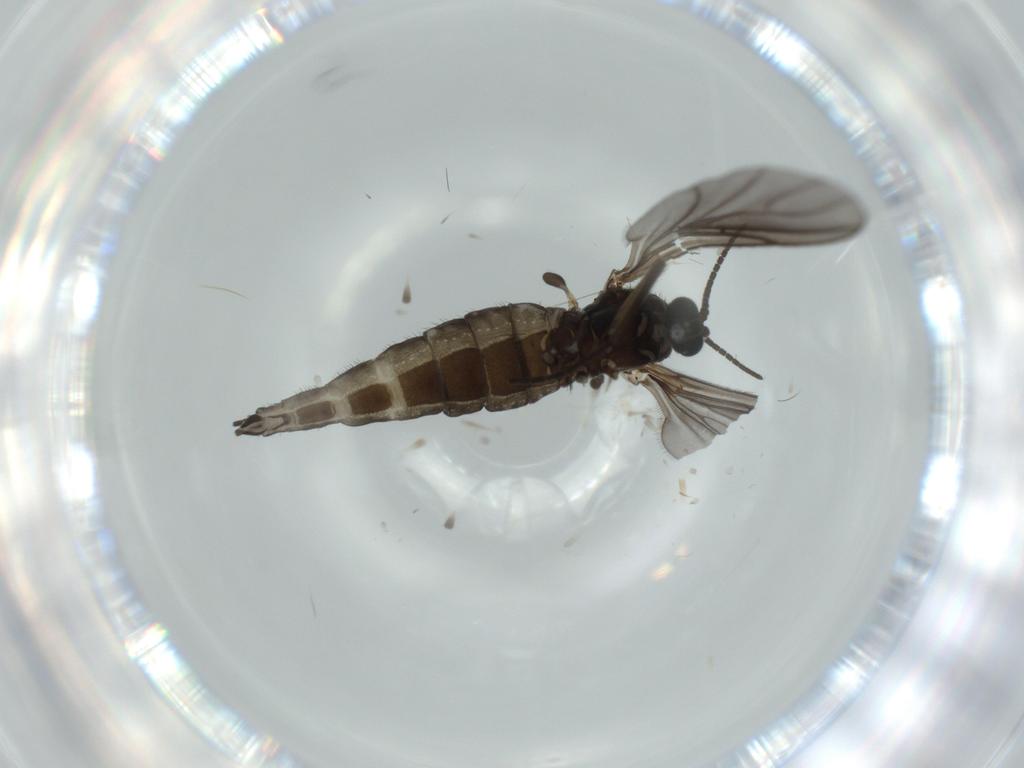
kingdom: Animalia
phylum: Arthropoda
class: Insecta
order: Diptera
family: Sciaridae
